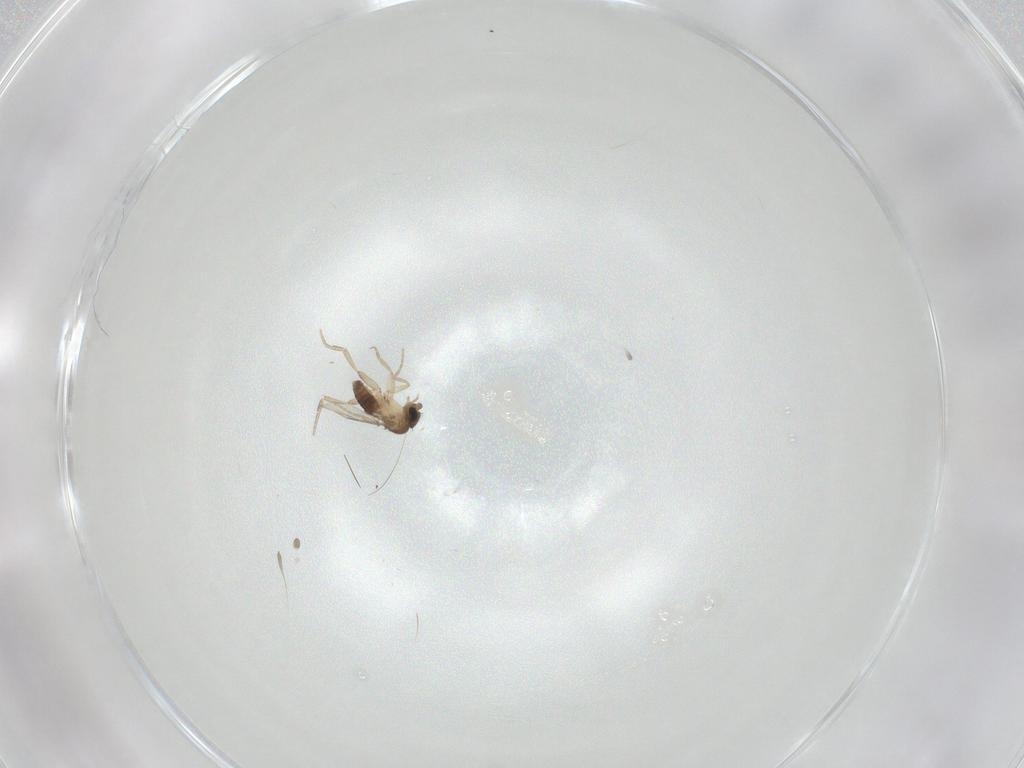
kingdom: Animalia
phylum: Arthropoda
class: Insecta
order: Diptera
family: Phoridae
